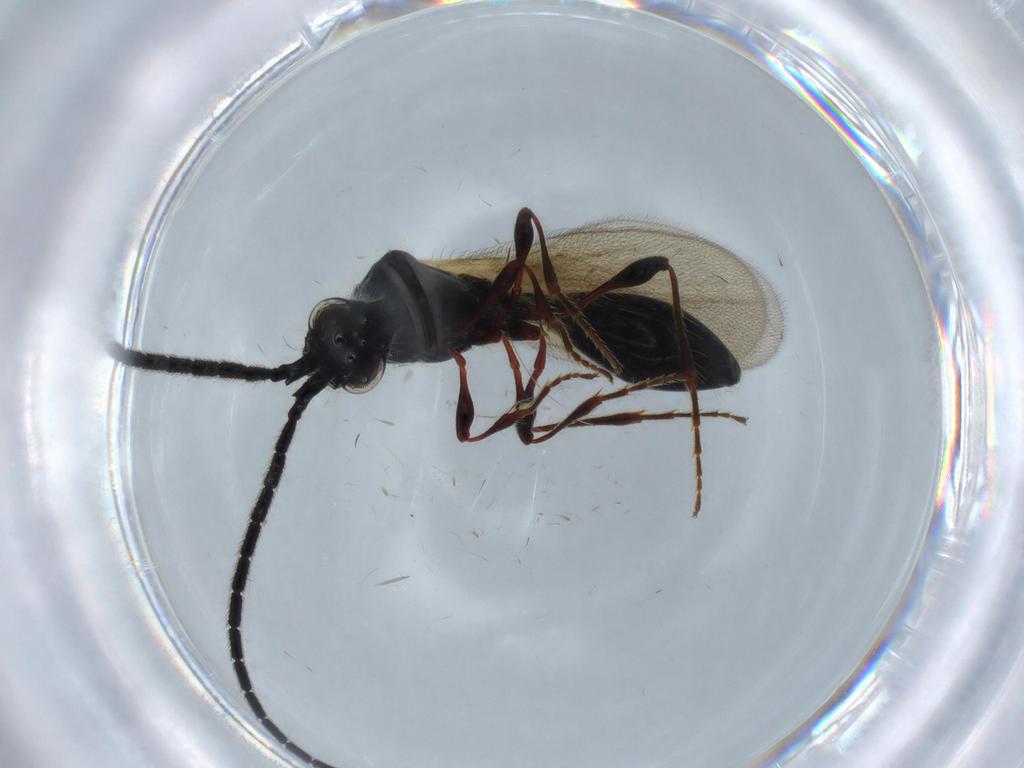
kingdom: Animalia
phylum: Arthropoda
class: Insecta
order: Hymenoptera
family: Diapriidae
